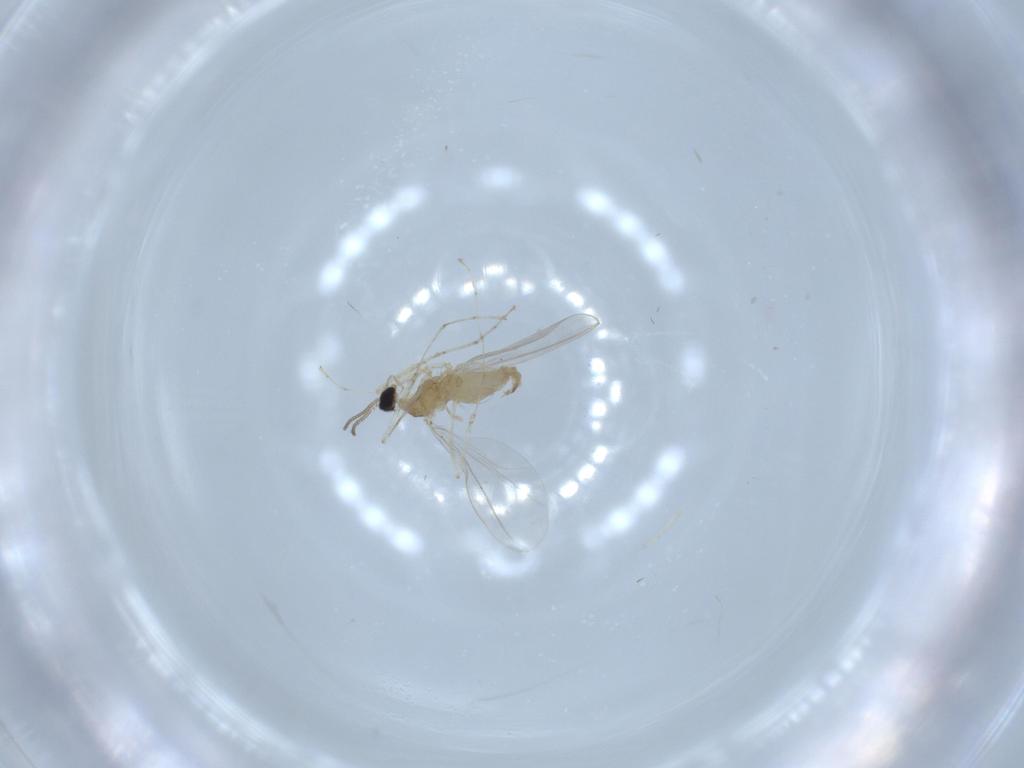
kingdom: Animalia
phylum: Arthropoda
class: Insecta
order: Diptera
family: Cecidomyiidae
